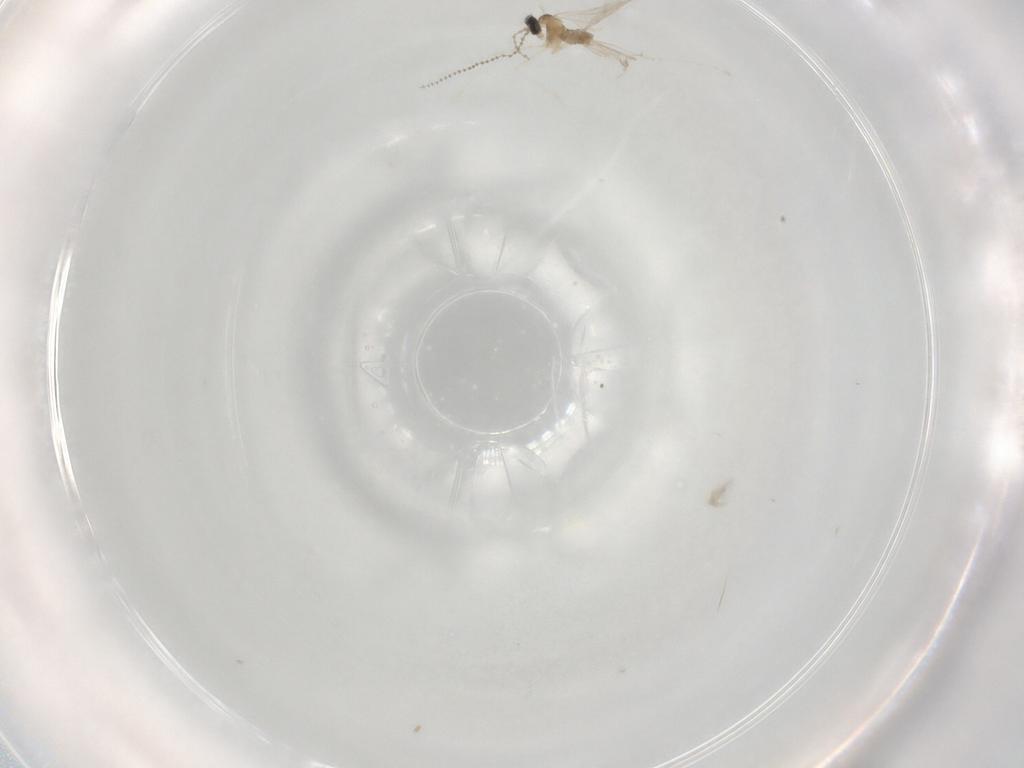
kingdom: Animalia
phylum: Arthropoda
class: Insecta
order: Diptera
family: Cecidomyiidae
